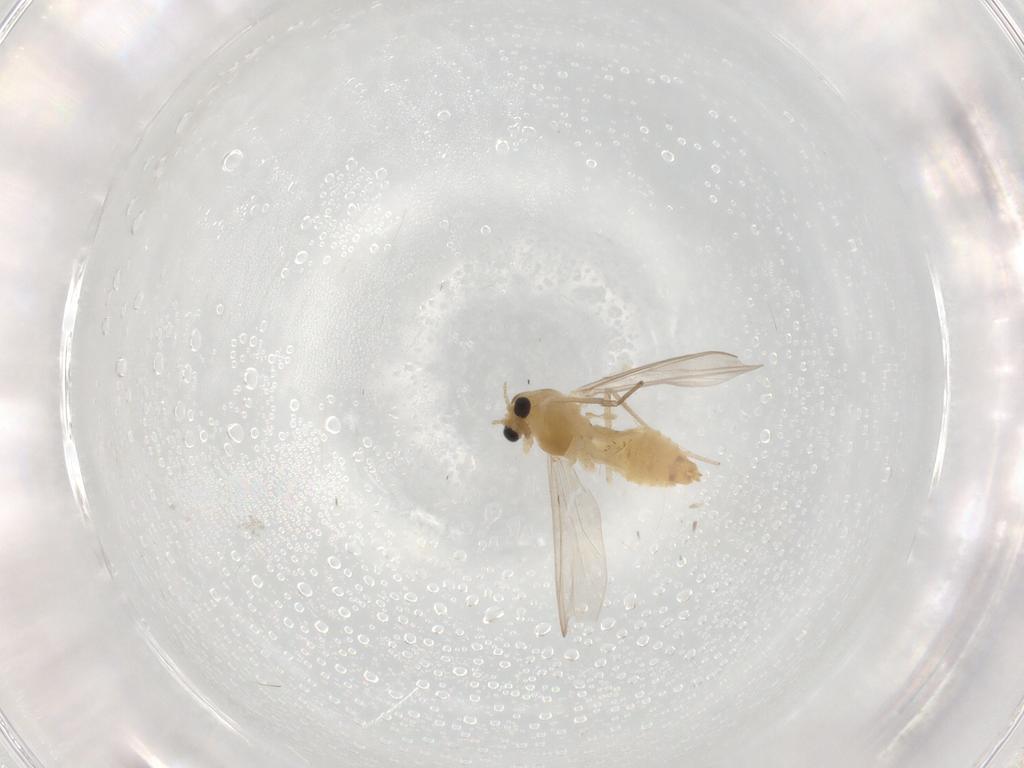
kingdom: Animalia
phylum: Arthropoda
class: Insecta
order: Diptera
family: Chironomidae
